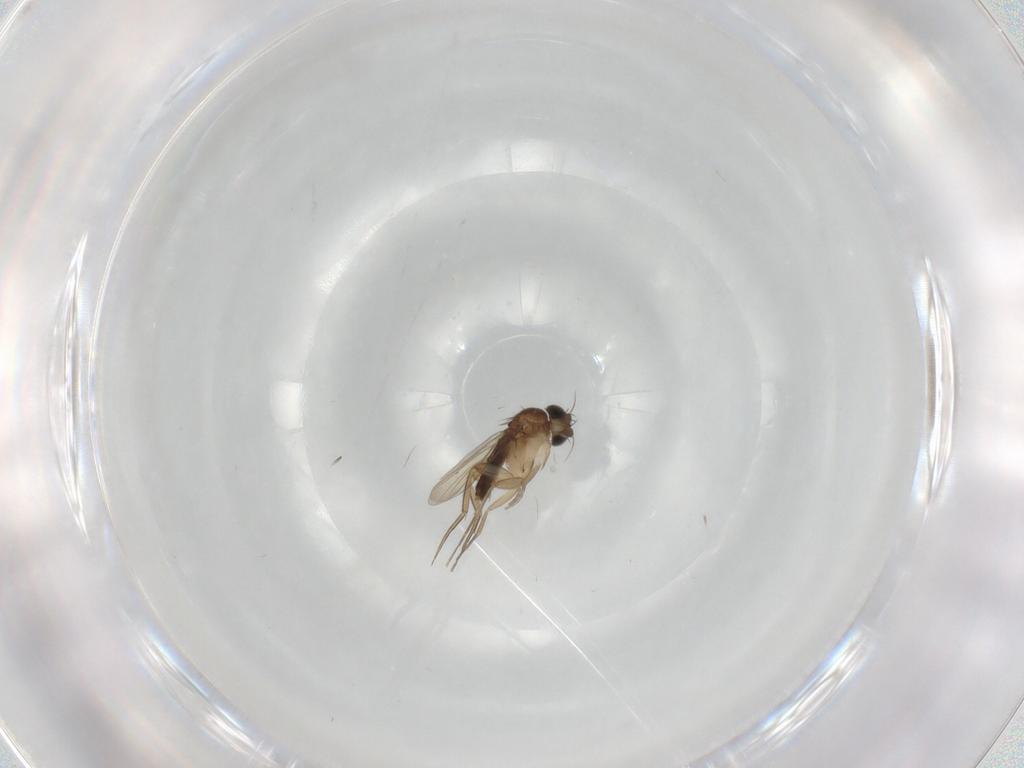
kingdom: Animalia
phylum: Arthropoda
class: Insecta
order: Diptera
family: Phoridae
